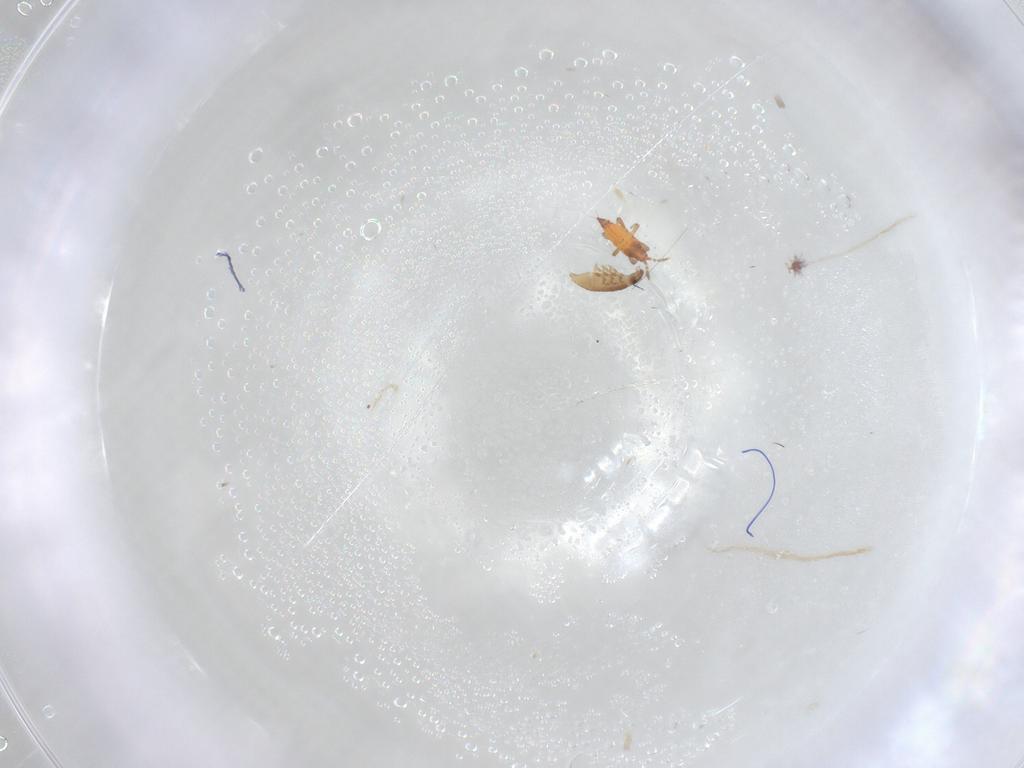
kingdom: Animalia
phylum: Arthropoda
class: Insecta
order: Thysanoptera
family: Phlaeothripidae
